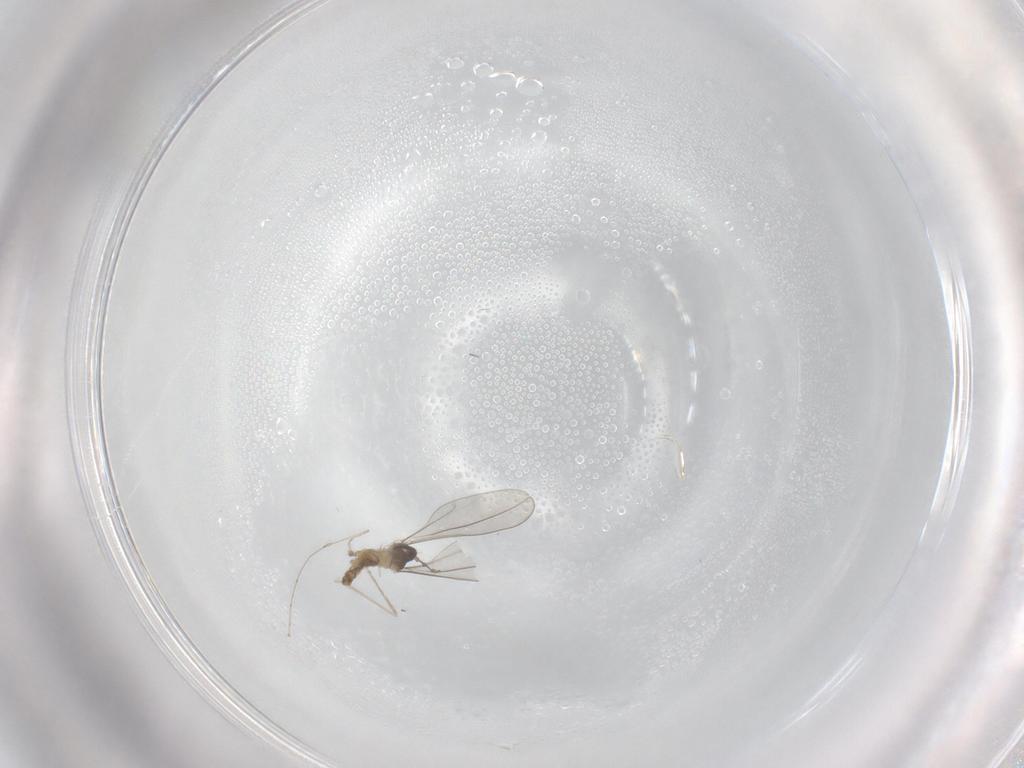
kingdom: Animalia
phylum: Arthropoda
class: Insecta
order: Diptera
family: Cecidomyiidae
